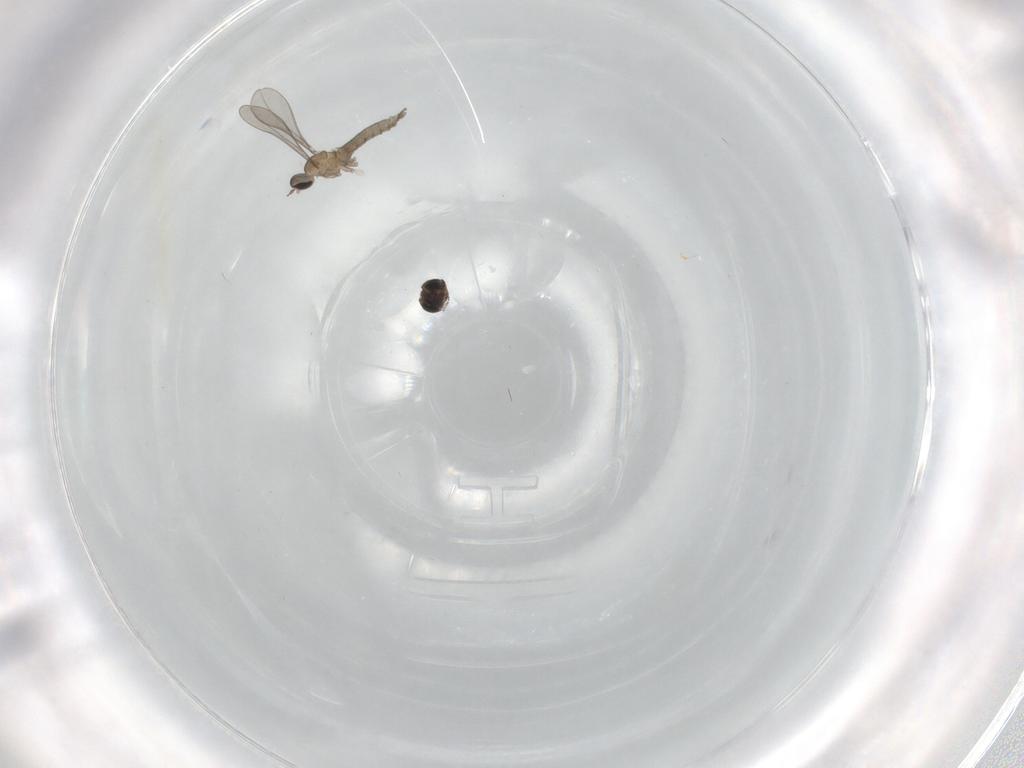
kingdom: Animalia
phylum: Arthropoda
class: Insecta
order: Diptera
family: Cecidomyiidae
